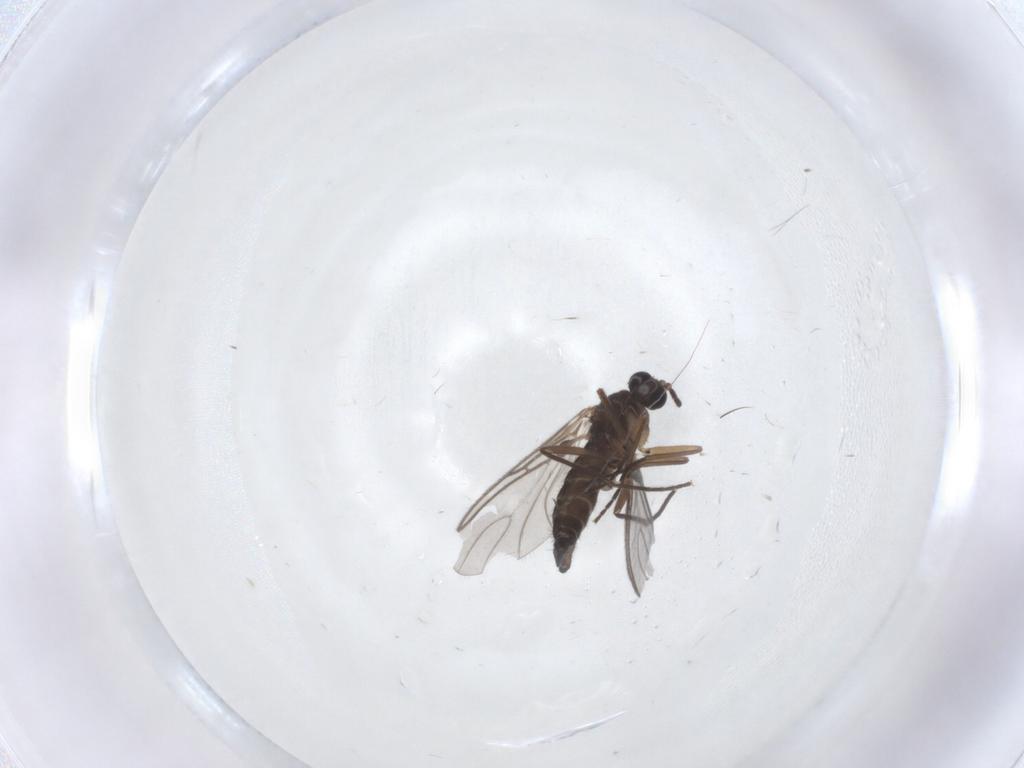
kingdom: Animalia
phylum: Arthropoda
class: Insecta
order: Diptera
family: Sciaridae
